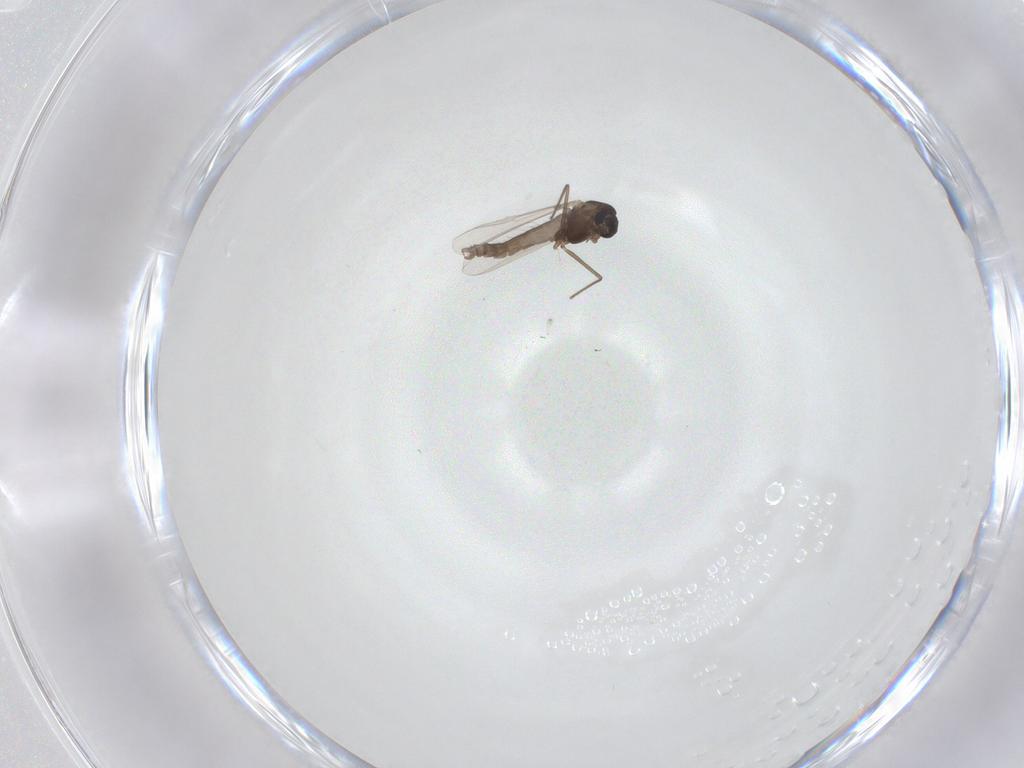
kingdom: Animalia
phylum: Arthropoda
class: Insecta
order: Diptera
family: Chironomidae
